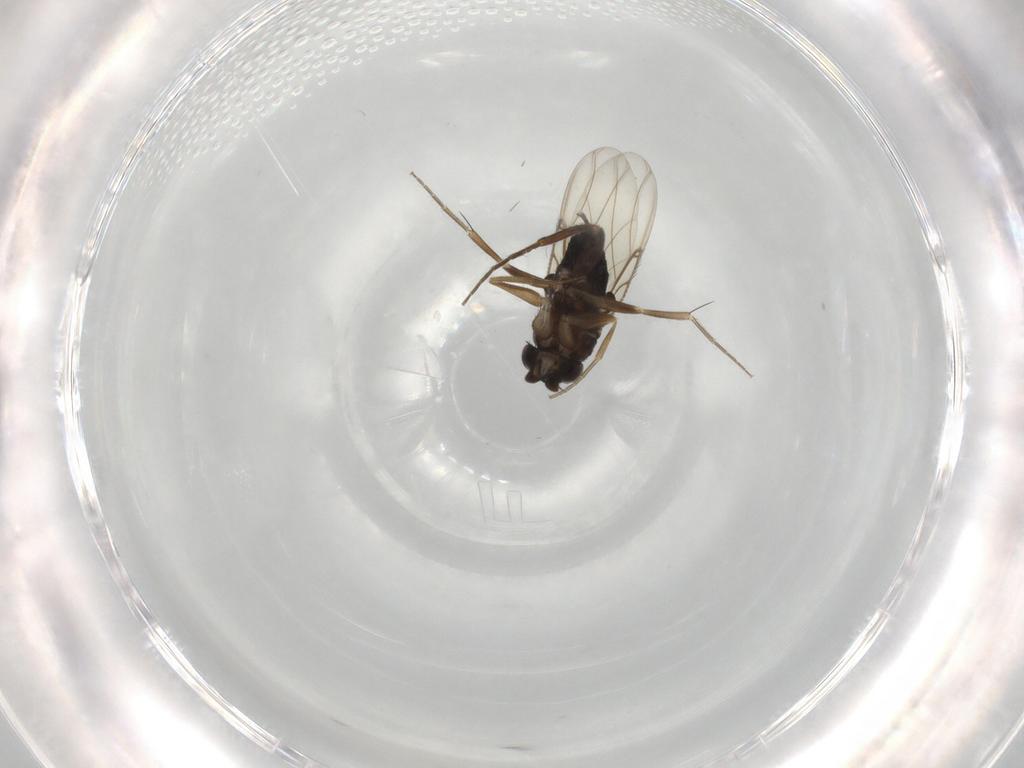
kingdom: Animalia
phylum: Arthropoda
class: Insecta
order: Diptera
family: Phoridae
